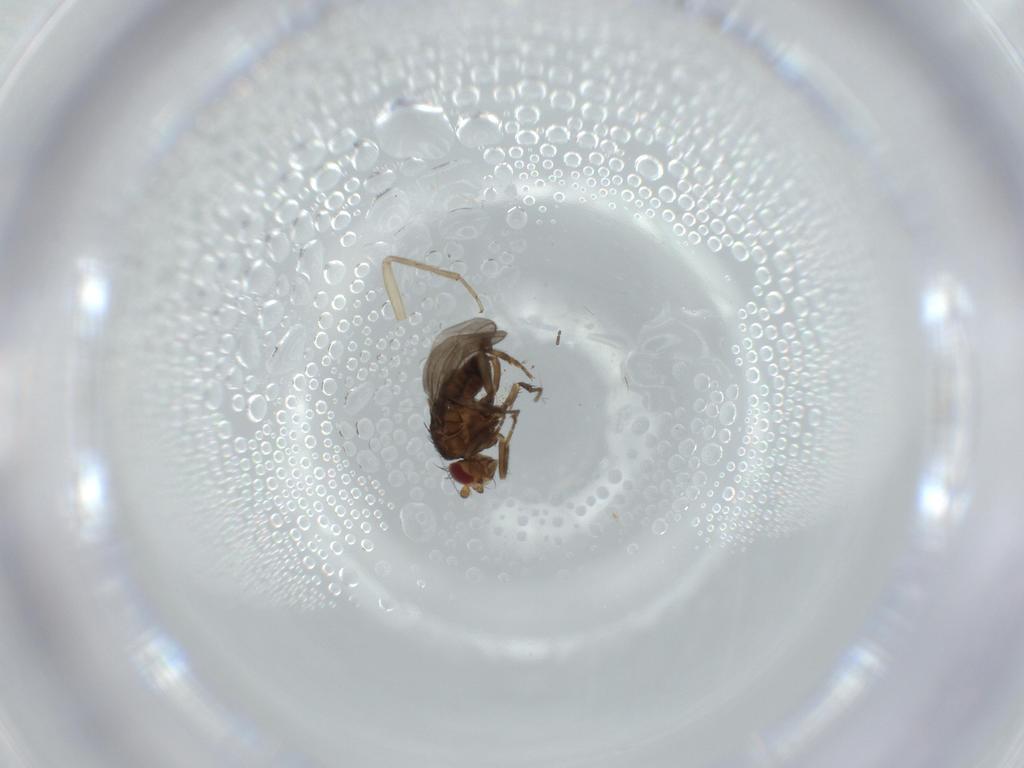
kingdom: Animalia
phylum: Arthropoda
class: Insecta
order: Diptera
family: Cecidomyiidae
